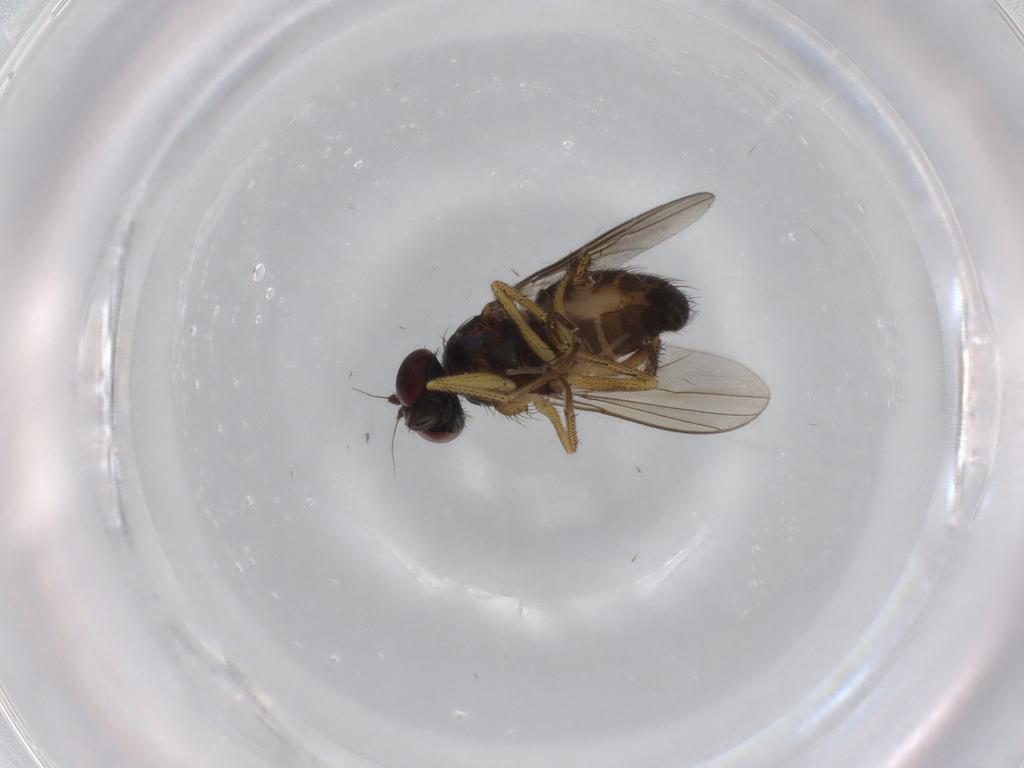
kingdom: Animalia
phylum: Arthropoda
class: Insecta
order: Diptera
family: Dolichopodidae
